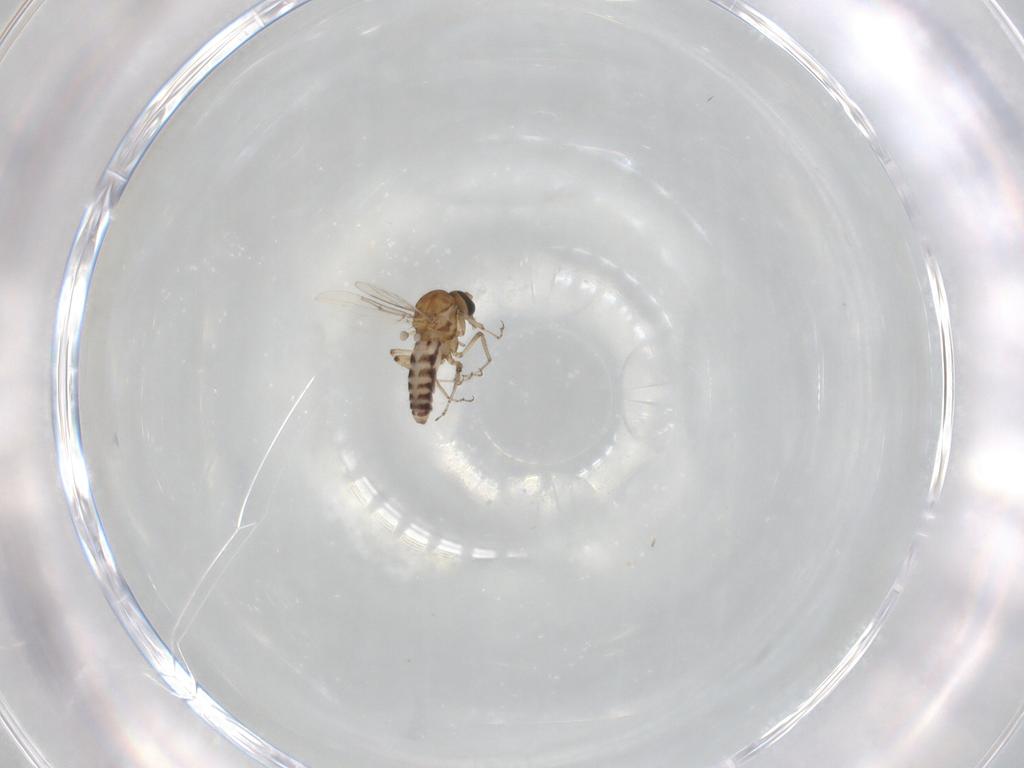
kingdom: Animalia
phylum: Arthropoda
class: Insecta
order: Diptera
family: Ceratopogonidae
